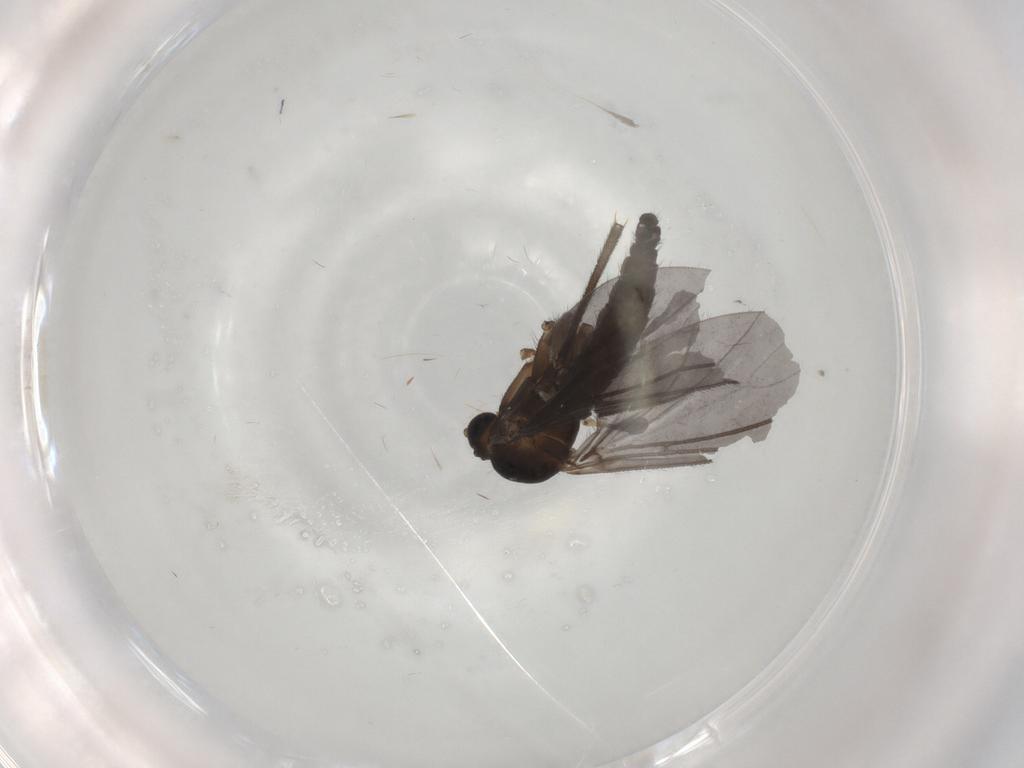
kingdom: Animalia
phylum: Arthropoda
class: Insecta
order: Diptera
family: Sciaridae
